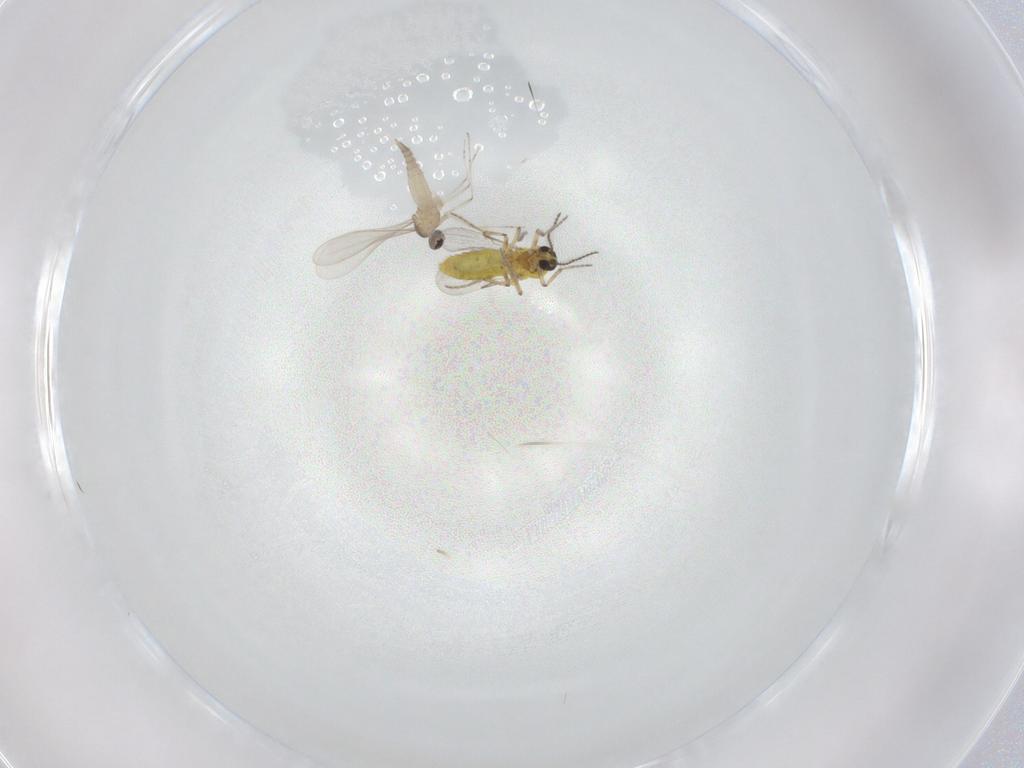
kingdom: Animalia
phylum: Arthropoda
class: Insecta
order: Diptera
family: Ceratopogonidae
